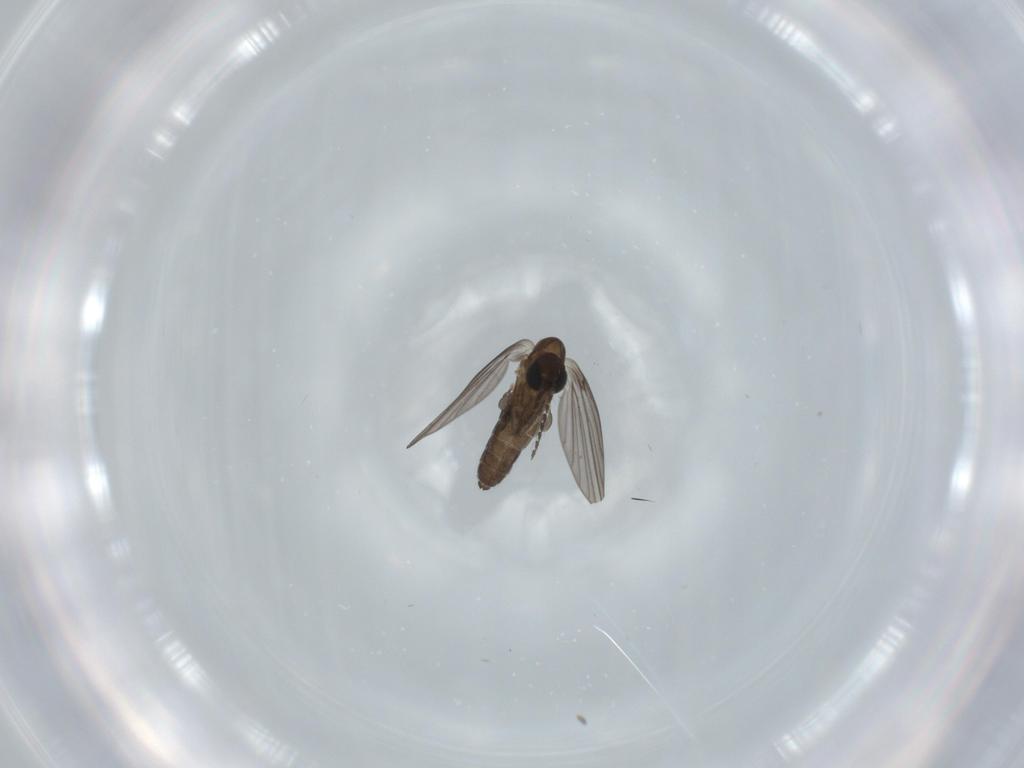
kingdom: Animalia
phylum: Arthropoda
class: Insecta
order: Diptera
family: Psychodidae
